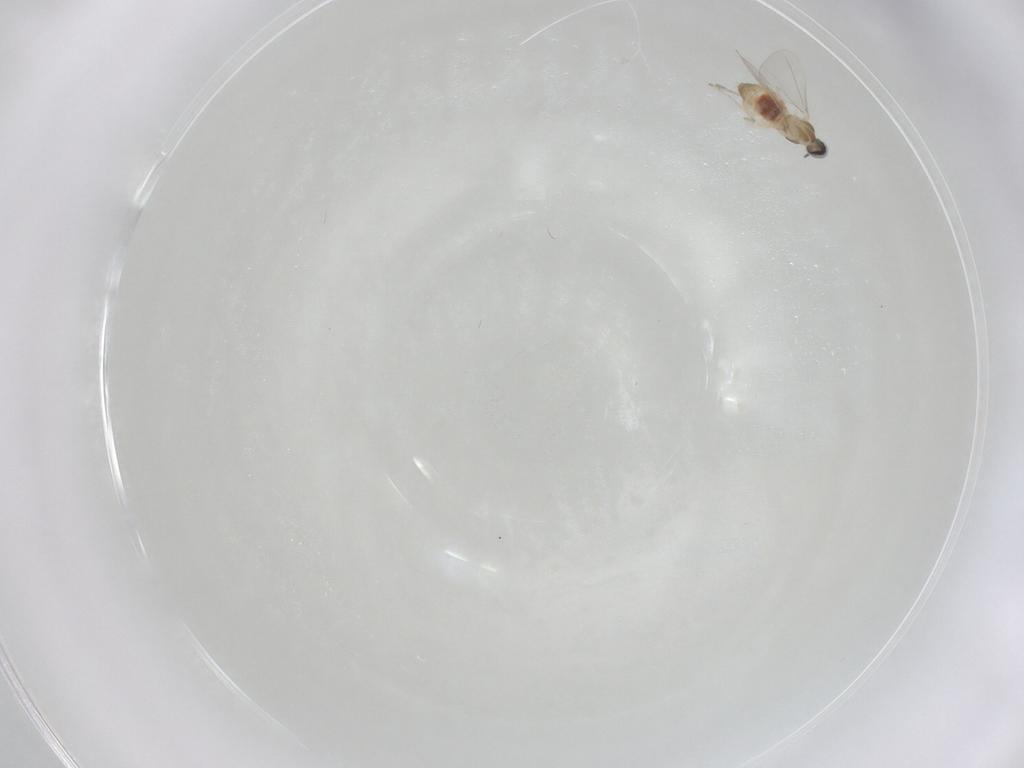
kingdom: Animalia
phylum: Arthropoda
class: Insecta
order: Diptera
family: Cecidomyiidae
